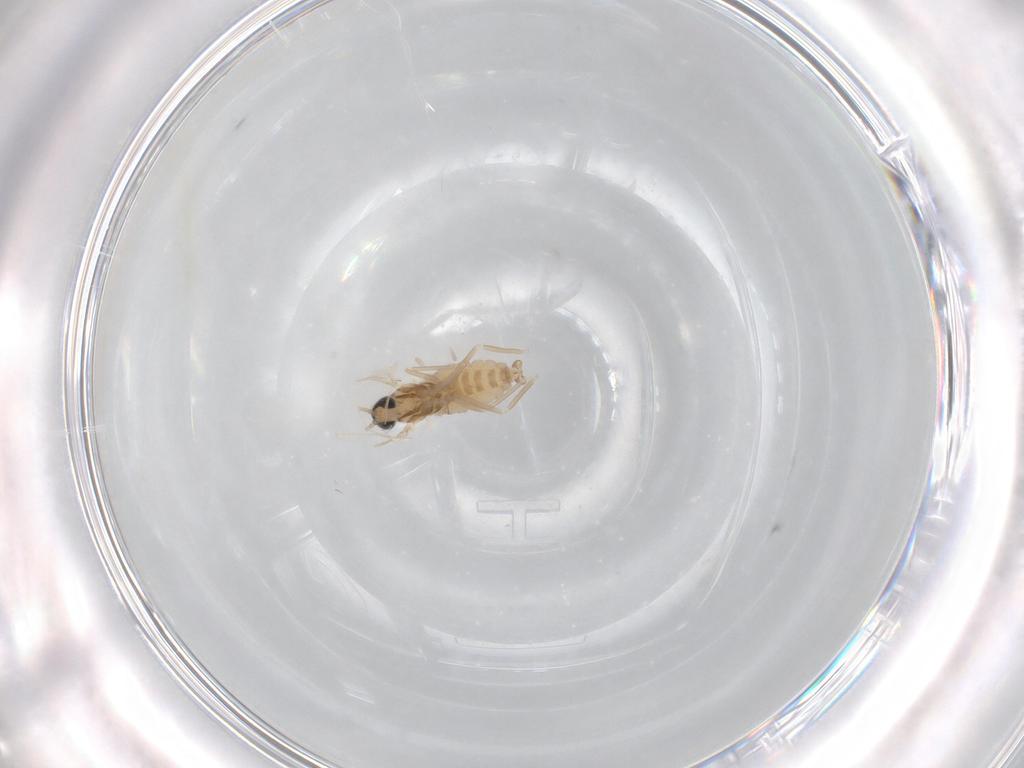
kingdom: Animalia
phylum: Arthropoda
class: Insecta
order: Diptera
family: Cecidomyiidae
